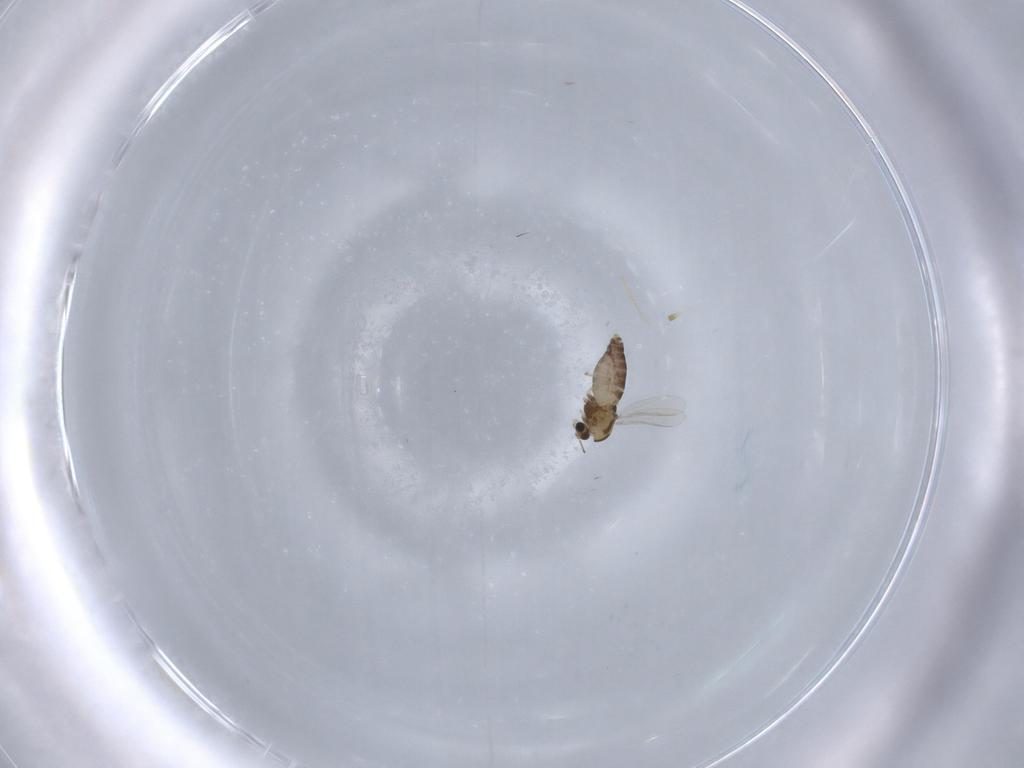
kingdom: Animalia
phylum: Arthropoda
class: Insecta
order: Diptera
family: Chironomidae
